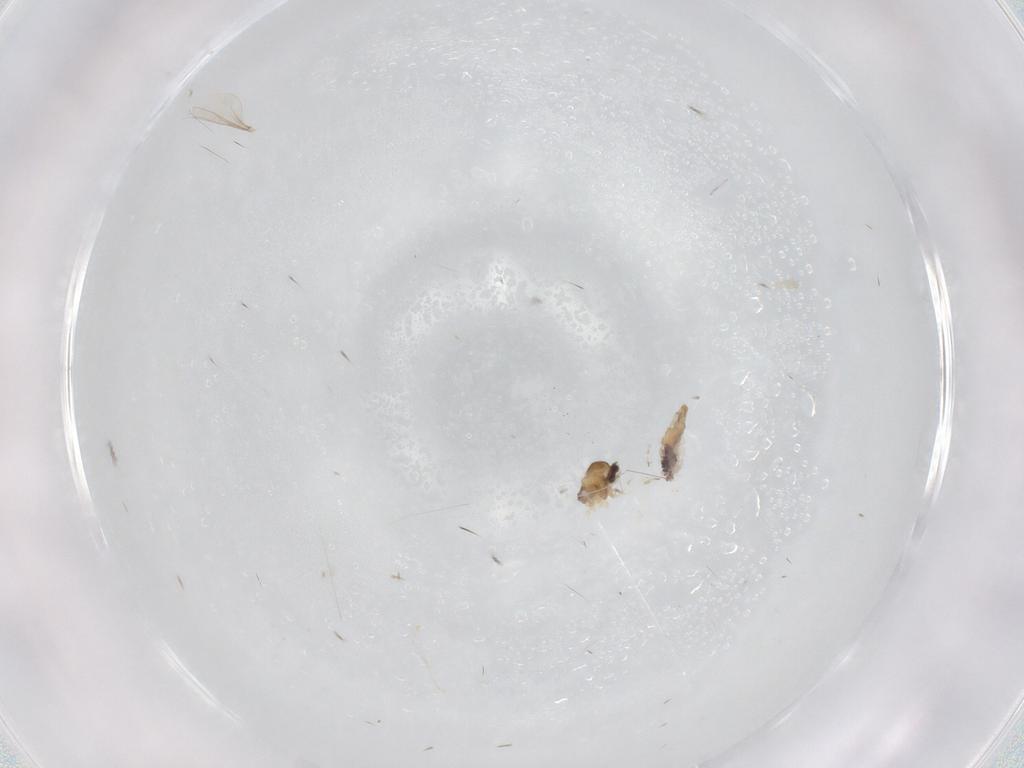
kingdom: Animalia
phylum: Arthropoda
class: Insecta
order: Diptera
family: Cecidomyiidae
